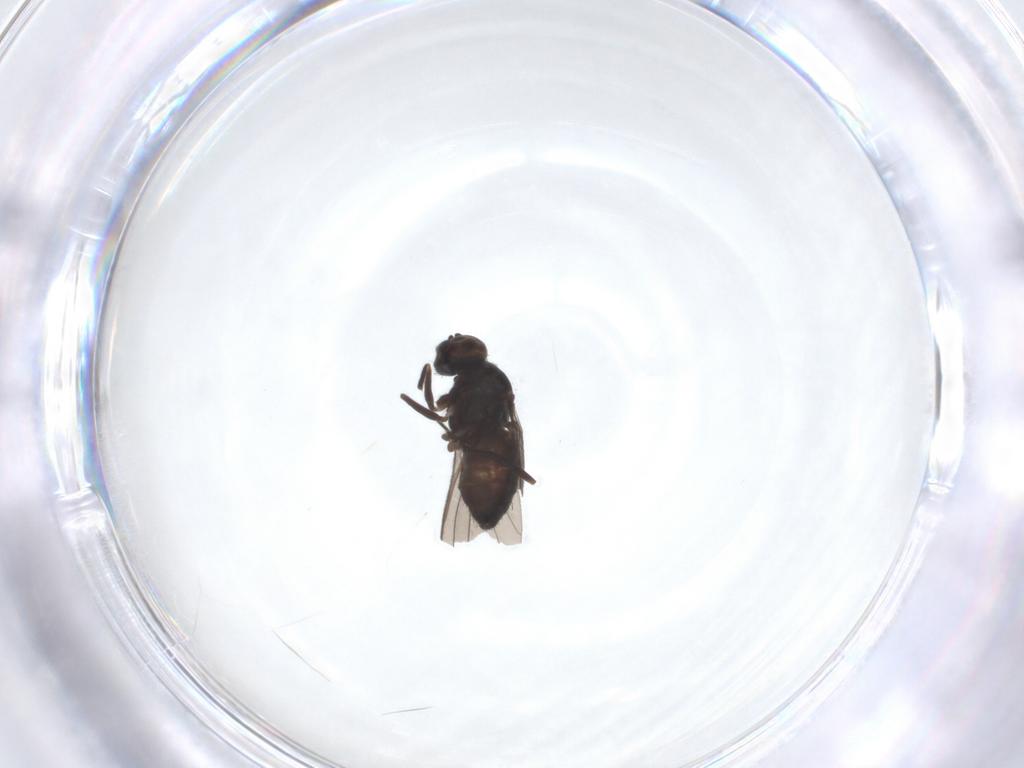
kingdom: Animalia
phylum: Arthropoda
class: Insecta
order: Diptera
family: Dolichopodidae
